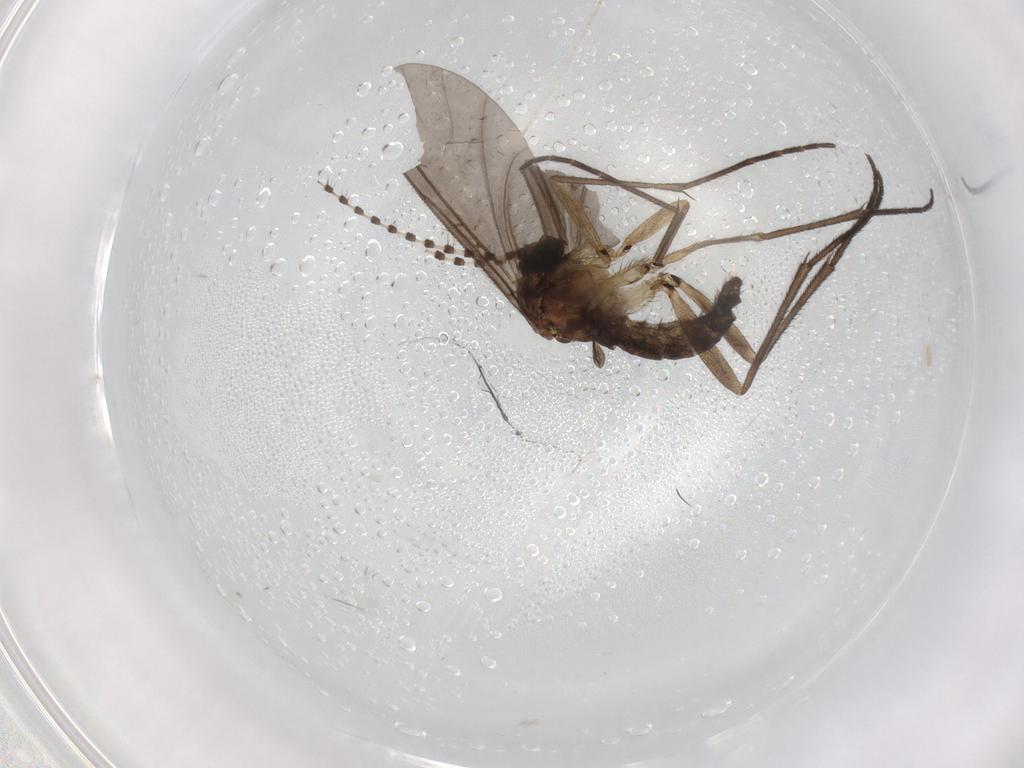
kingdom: Animalia
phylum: Arthropoda
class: Insecta
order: Diptera
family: Sciaridae
